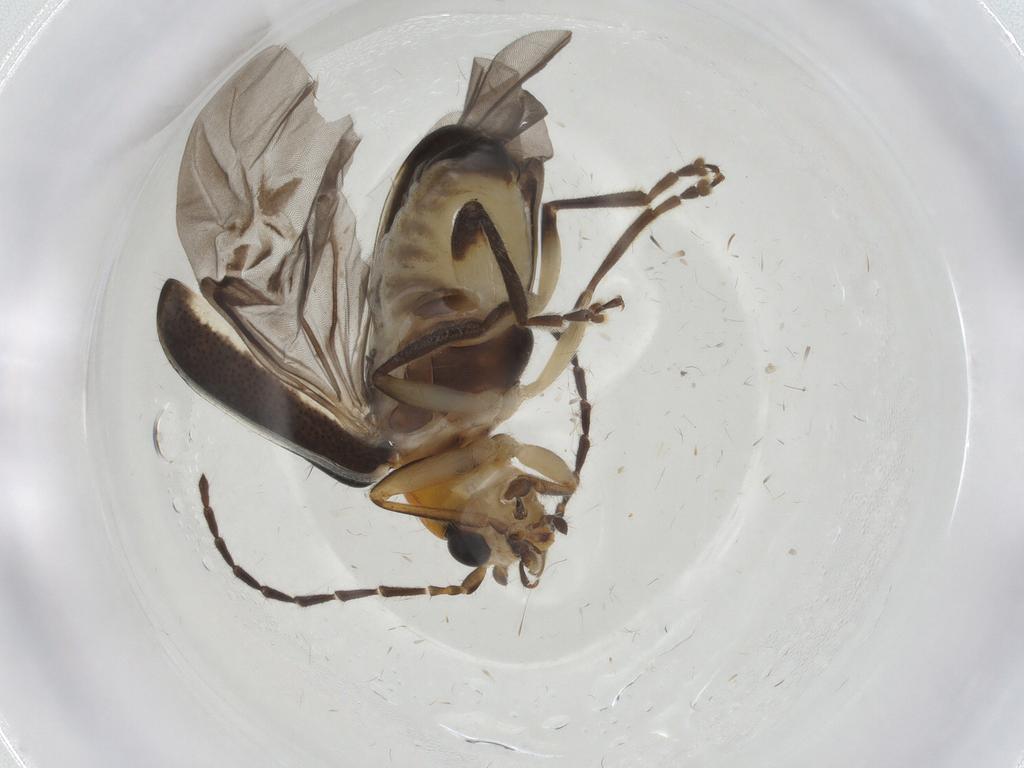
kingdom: Animalia
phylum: Arthropoda
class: Insecta
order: Coleoptera
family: Chrysomelidae
